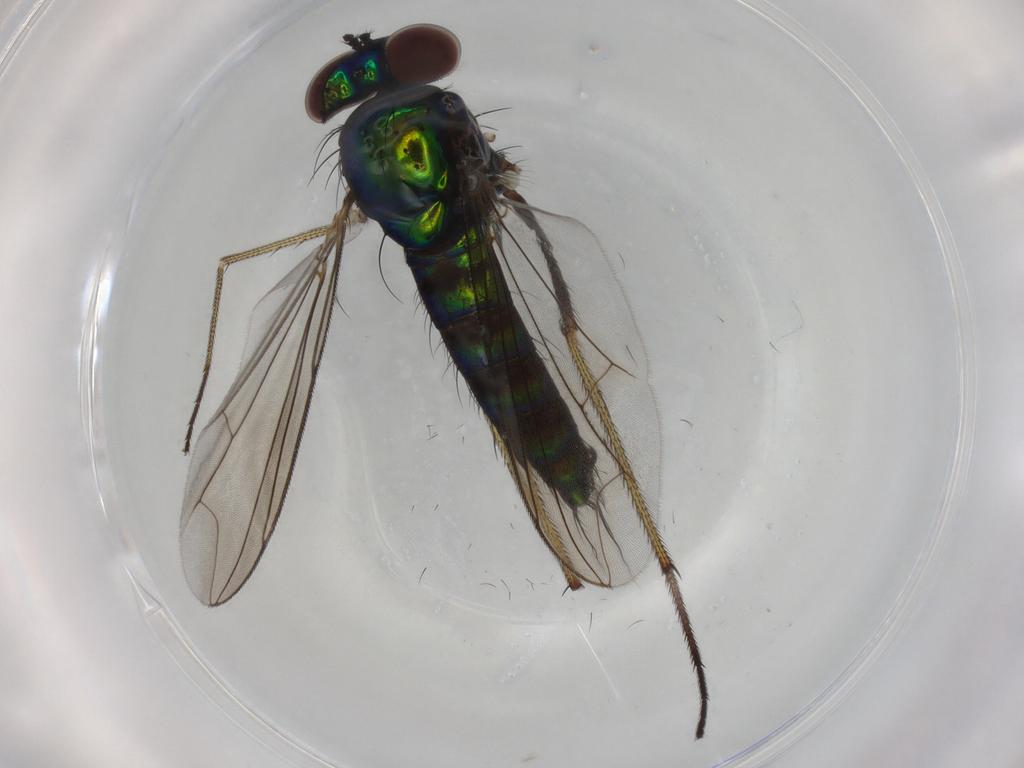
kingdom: Animalia
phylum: Arthropoda
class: Insecta
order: Diptera
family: Dolichopodidae
